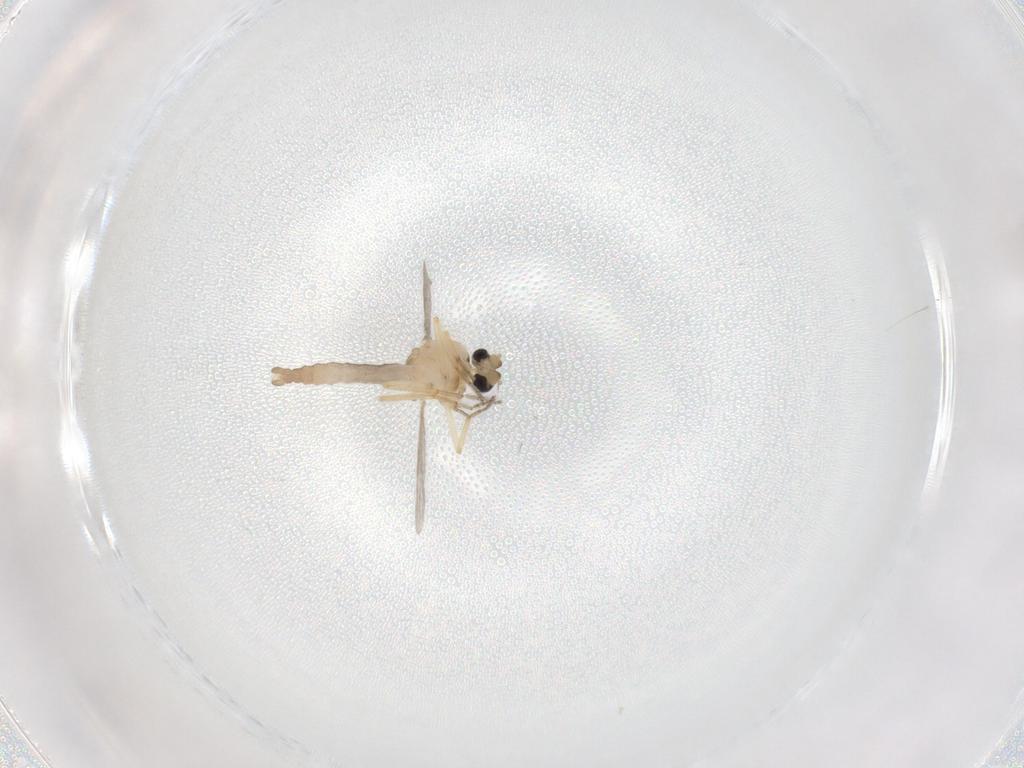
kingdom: Animalia
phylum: Arthropoda
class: Insecta
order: Diptera
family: Ceratopogonidae
